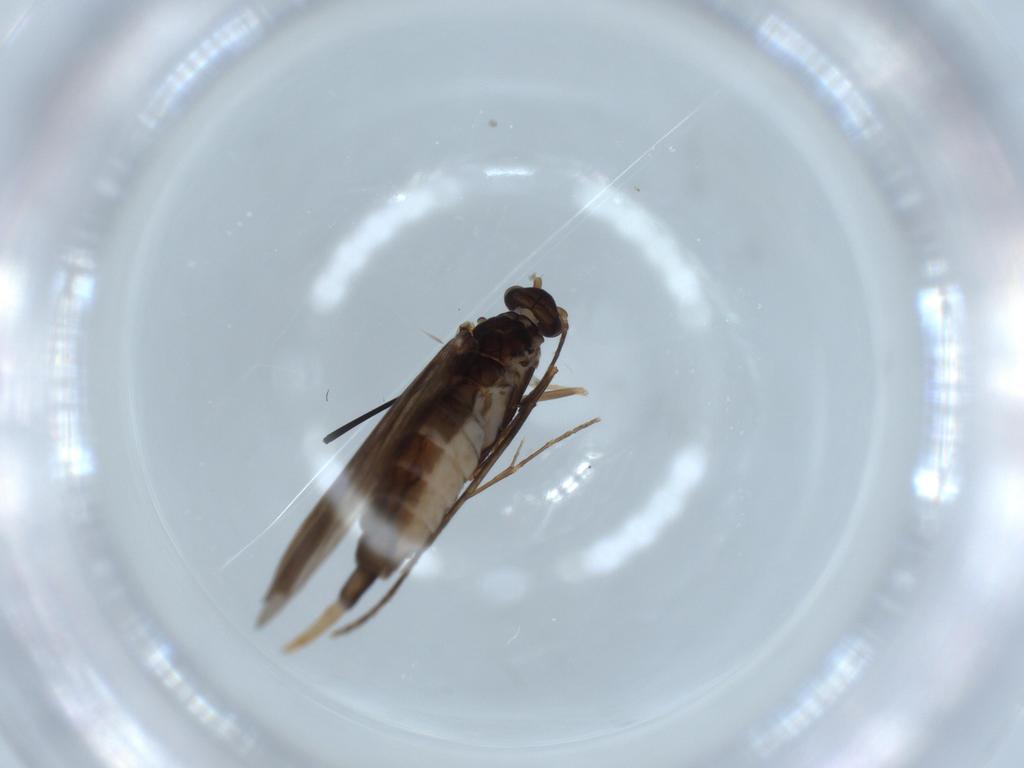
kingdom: Animalia
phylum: Arthropoda
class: Insecta
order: Trichoptera
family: Xiphocentronidae
